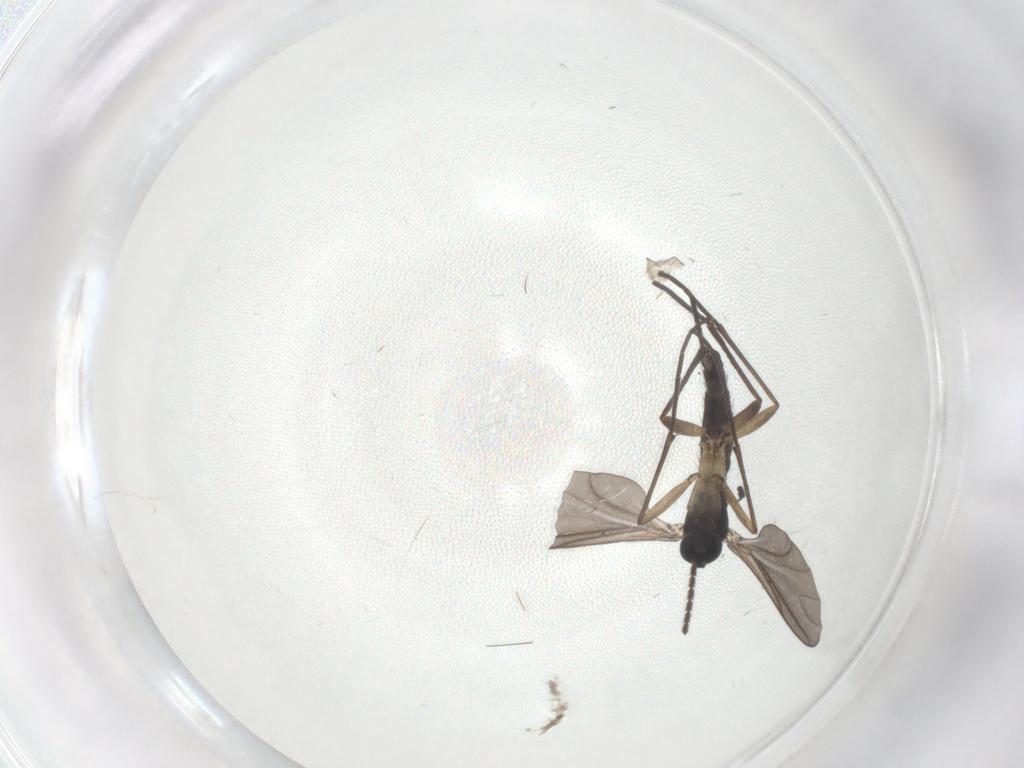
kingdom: Animalia
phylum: Arthropoda
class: Insecta
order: Diptera
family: Sciaridae
